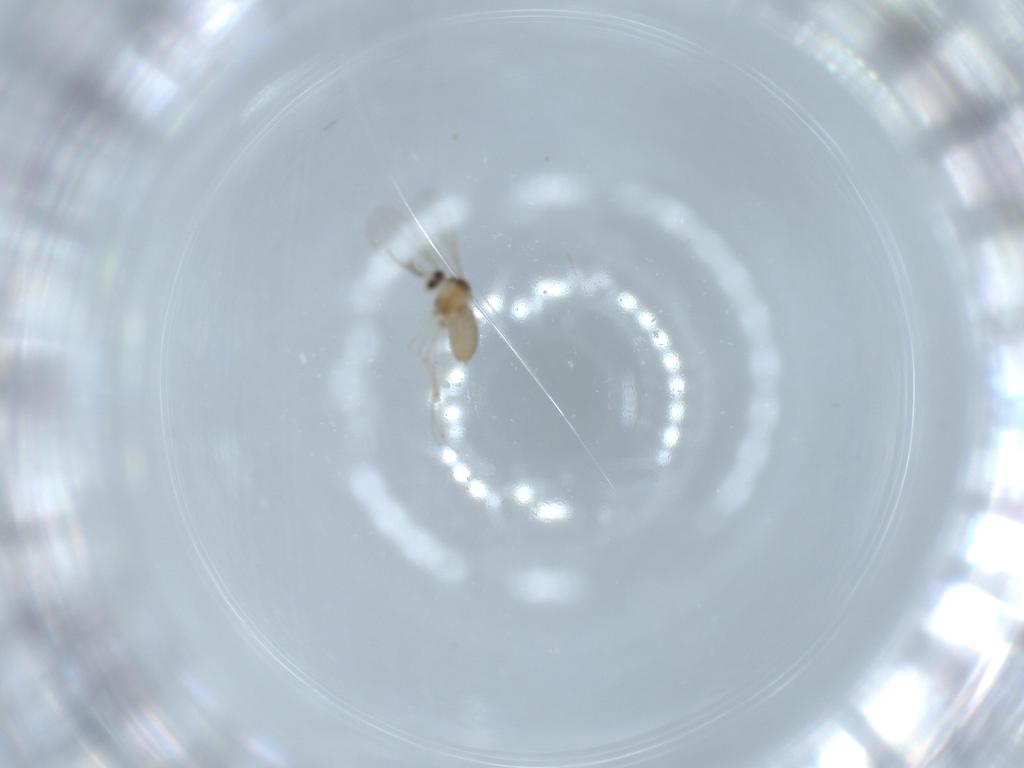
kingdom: Animalia
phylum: Arthropoda
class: Insecta
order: Diptera
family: Cecidomyiidae
